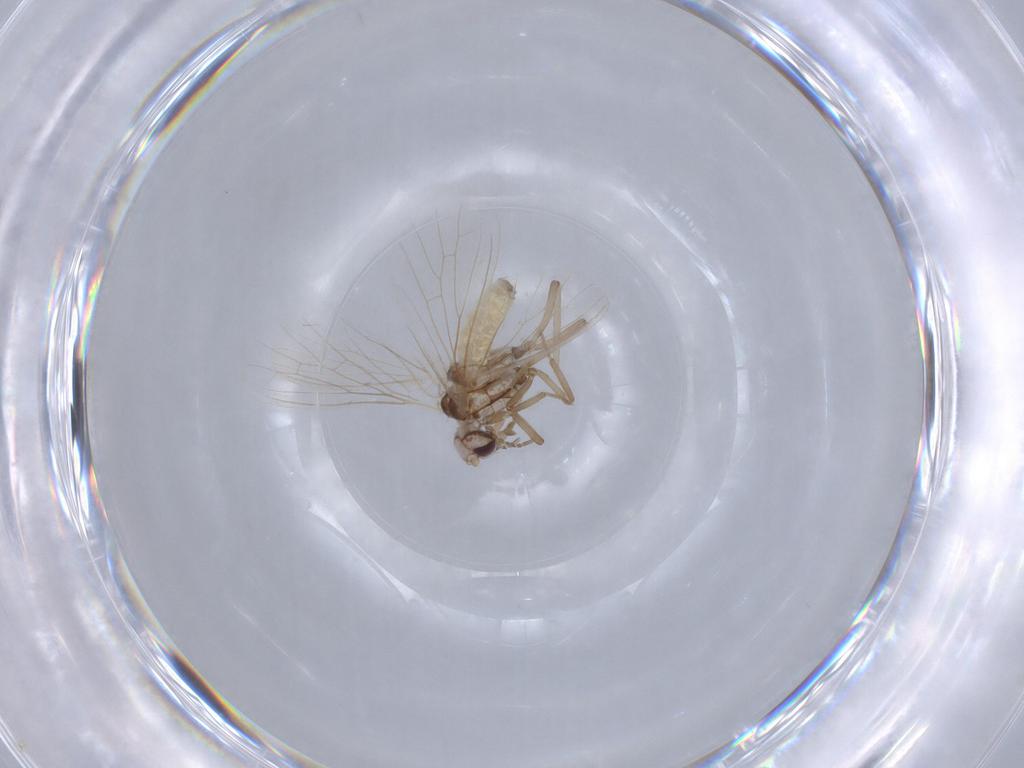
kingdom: Animalia
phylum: Arthropoda
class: Insecta
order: Neuroptera
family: Coniopterygidae
